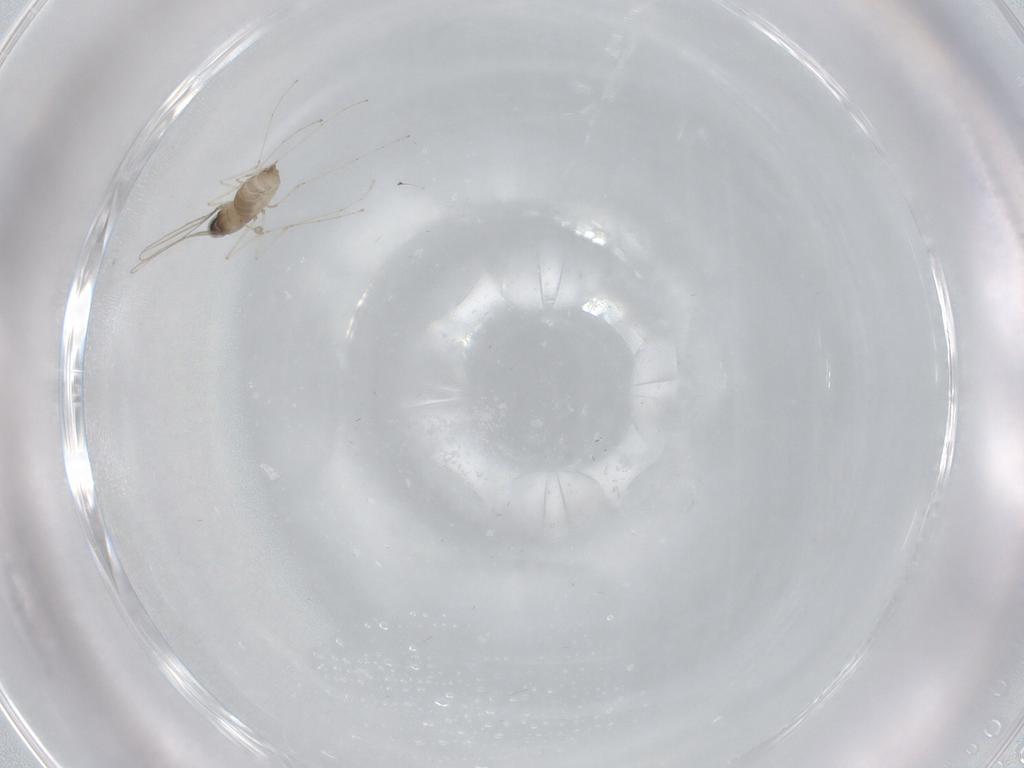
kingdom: Animalia
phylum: Arthropoda
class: Insecta
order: Diptera
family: Cecidomyiidae
